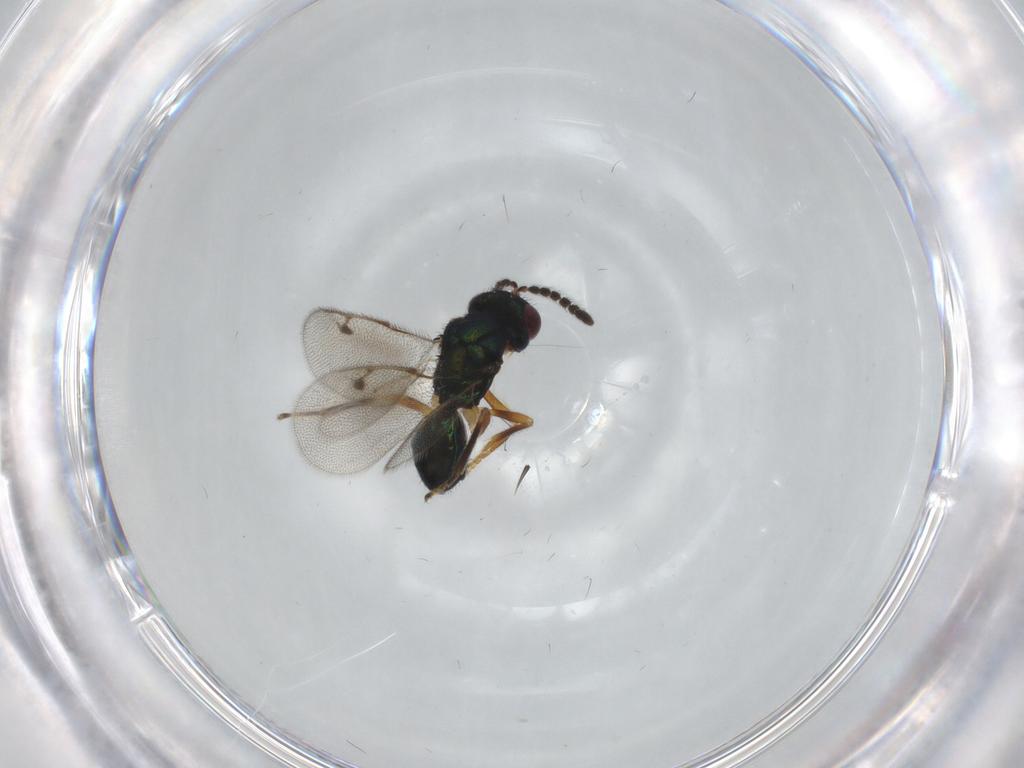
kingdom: Animalia
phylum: Arthropoda
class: Insecta
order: Hymenoptera
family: Pirenidae
